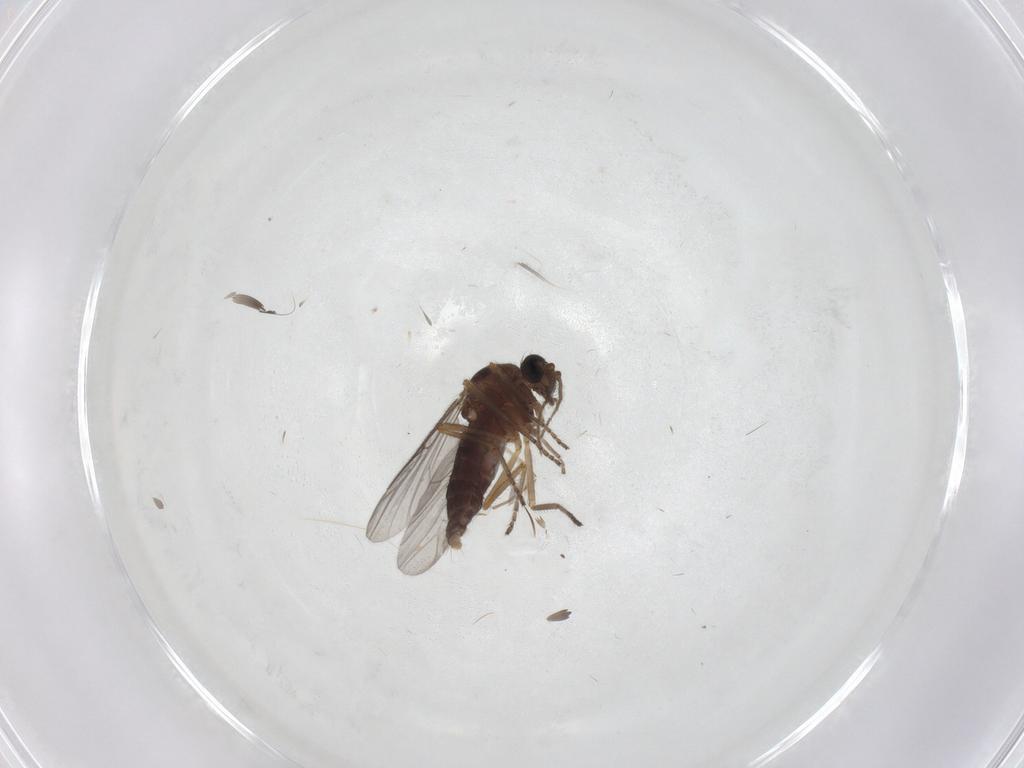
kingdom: Animalia
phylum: Arthropoda
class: Insecta
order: Diptera
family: Ceratopogonidae
